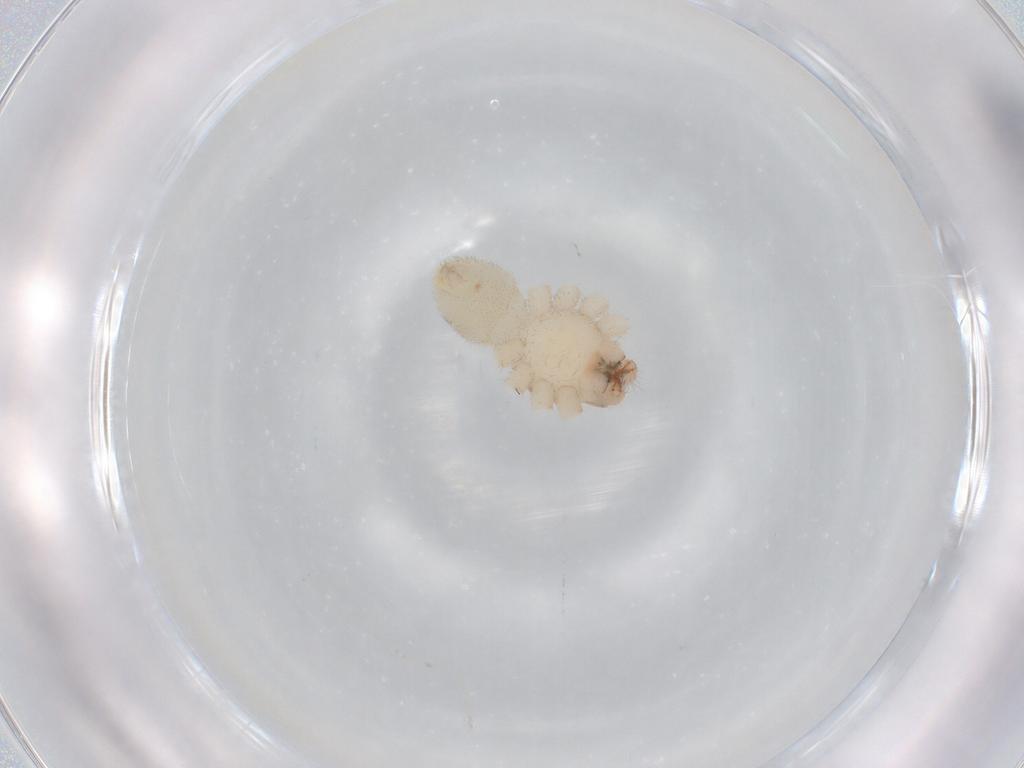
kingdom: Animalia
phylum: Arthropoda
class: Arachnida
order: Araneae
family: Corinnidae
